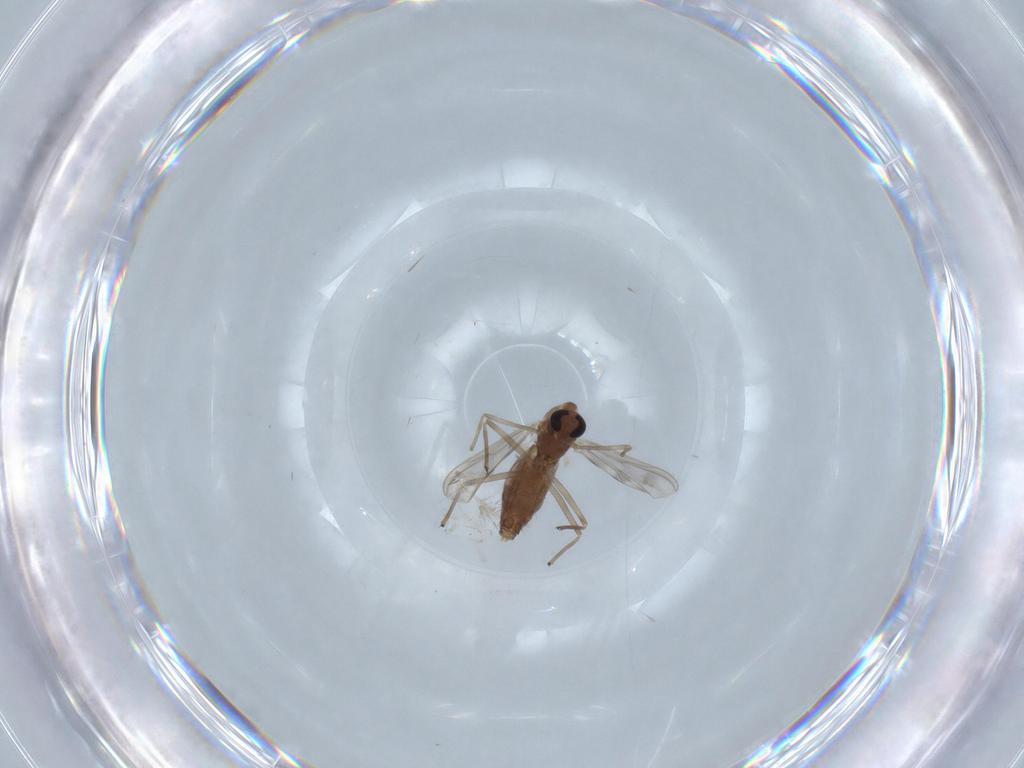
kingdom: Animalia
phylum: Arthropoda
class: Insecta
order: Diptera
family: Chironomidae
